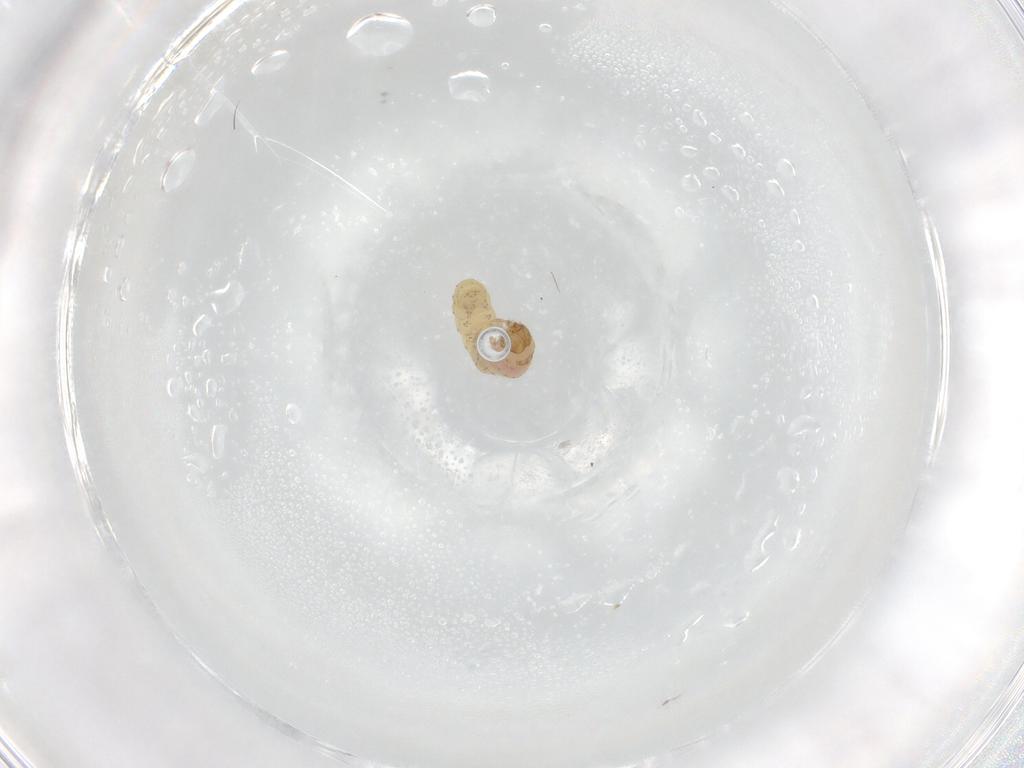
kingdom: Animalia
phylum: Arthropoda
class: Insecta
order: Lepidoptera
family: Gelechiidae
